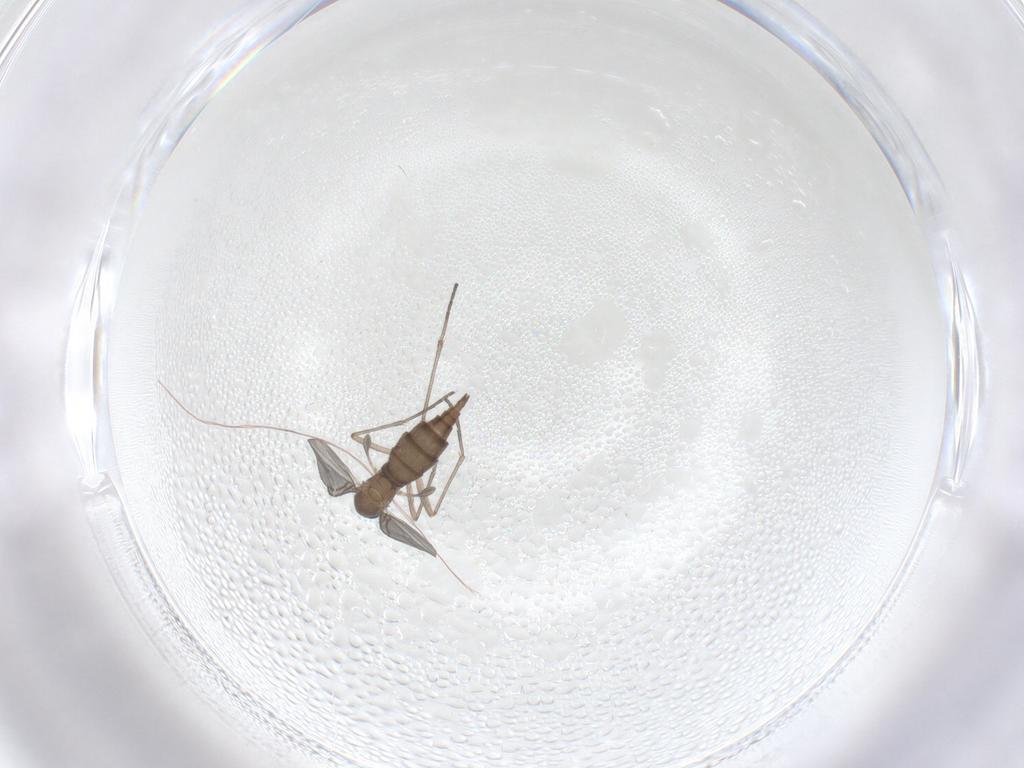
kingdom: Animalia
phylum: Arthropoda
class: Insecta
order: Diptera
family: Sciaridae
